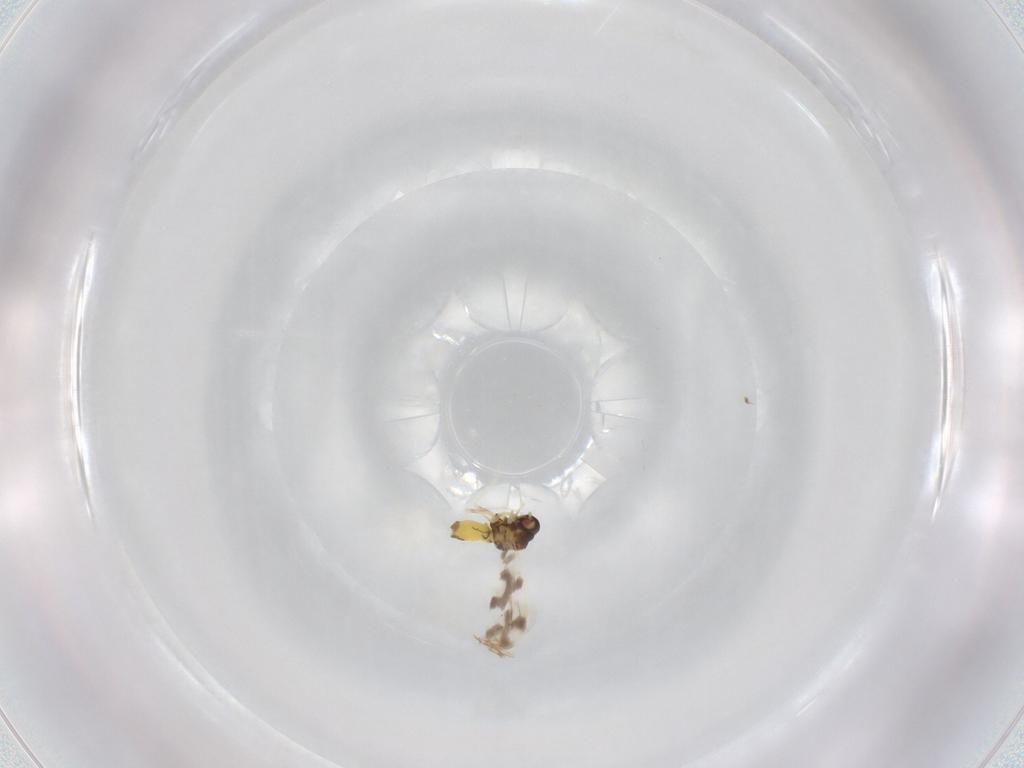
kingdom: Animalia
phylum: Arthropoda
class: Insecta
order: Hemiptera
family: Aleyrodidae
